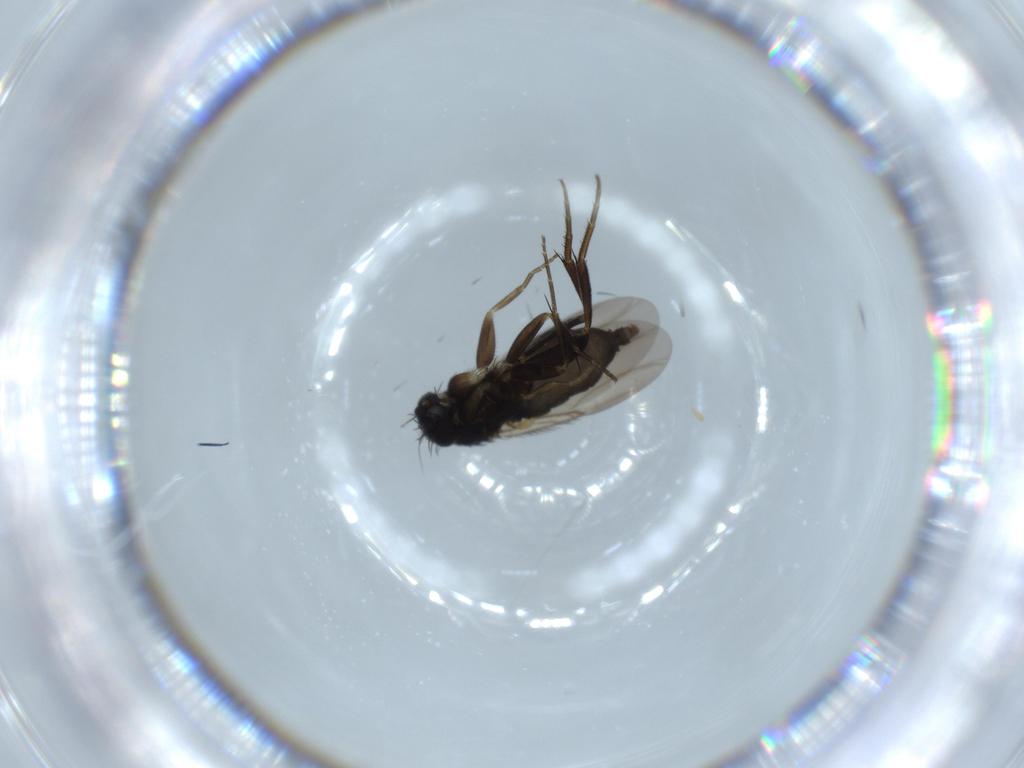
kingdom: Animalia
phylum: Arthropoda
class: Insecta
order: Diptera
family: Phoridae
